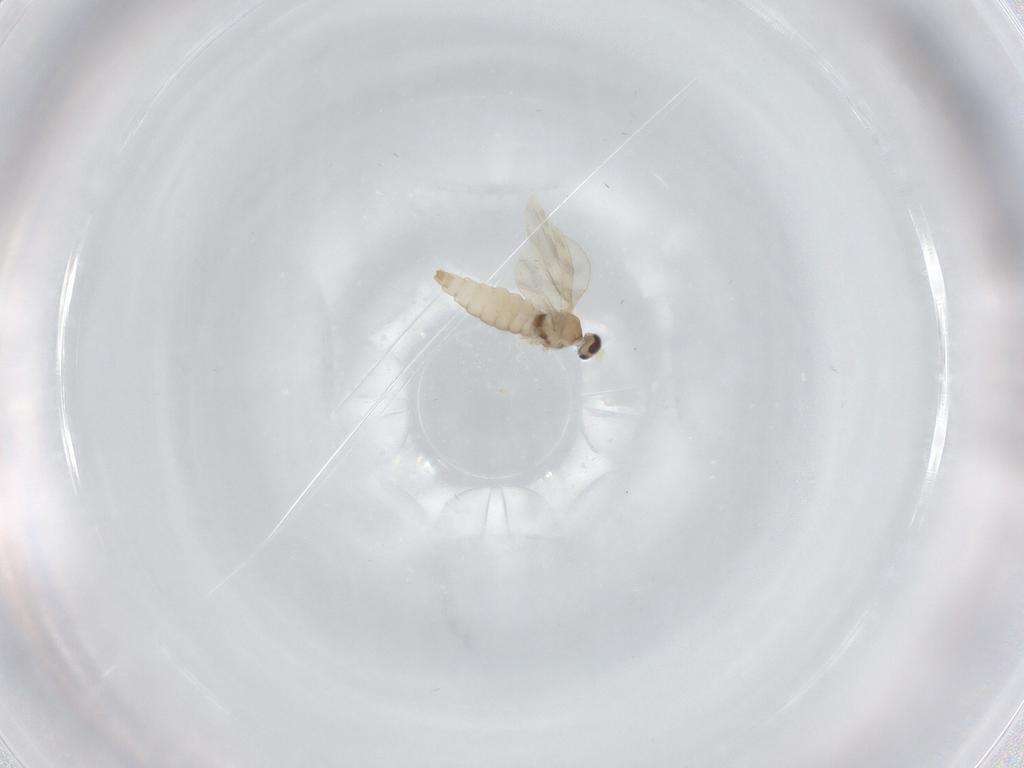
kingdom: Animalia
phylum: Arthropoda
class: Insecta
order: Diptera
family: Cecidomyiidae
